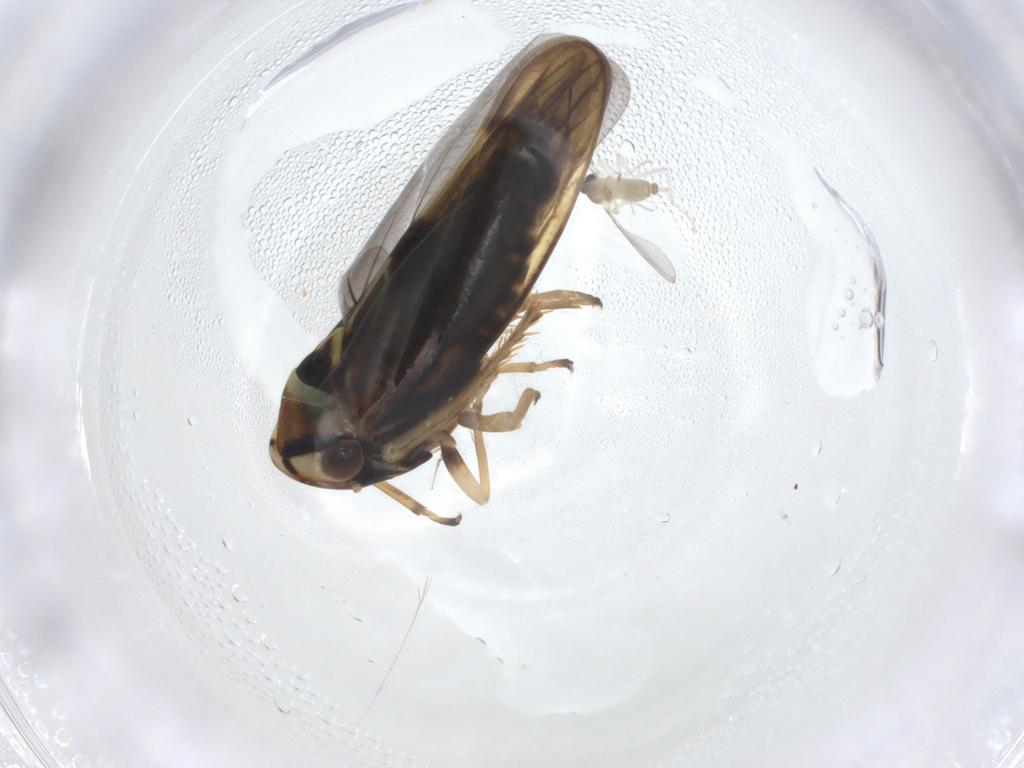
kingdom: Animalia
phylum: Arthropoda
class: Insecta
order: Hemiptera
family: Cicadellidae
